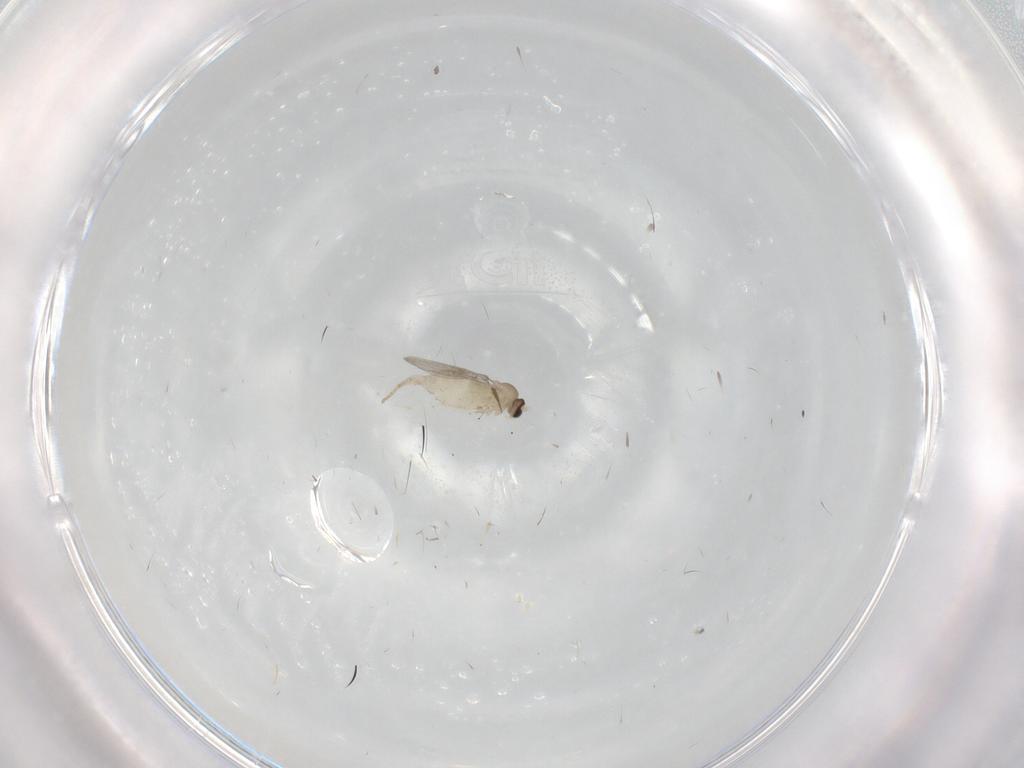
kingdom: Animalia
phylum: Arthropoda
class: Insecta
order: Diptera
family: Cecidomyiidae
